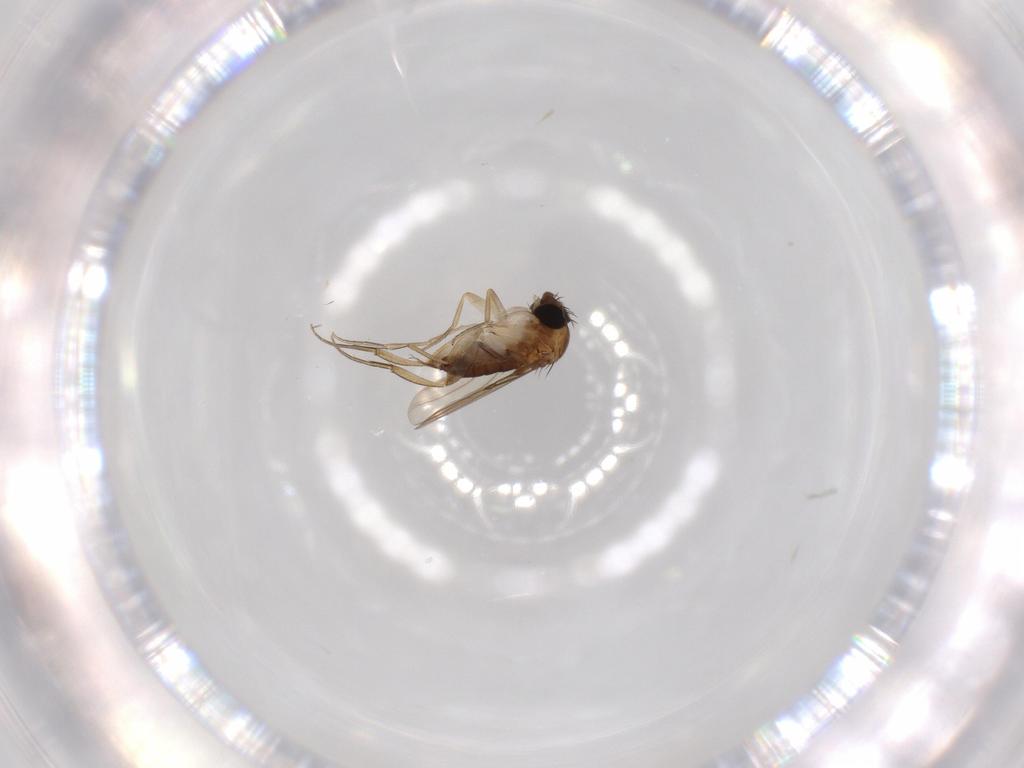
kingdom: Animalia
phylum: Arthropoda
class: Insecta
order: Diptera
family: Phoridae
